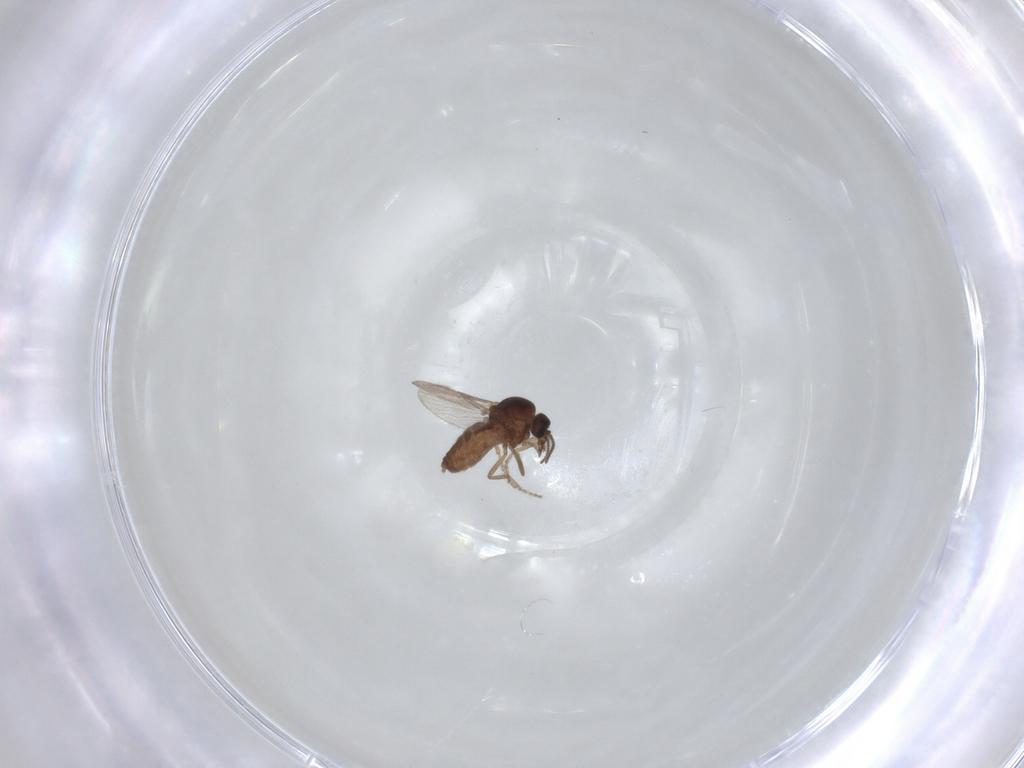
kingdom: Animalia
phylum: Arthropoda
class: Insecta
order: Diptera
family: Ceratopogonidae
